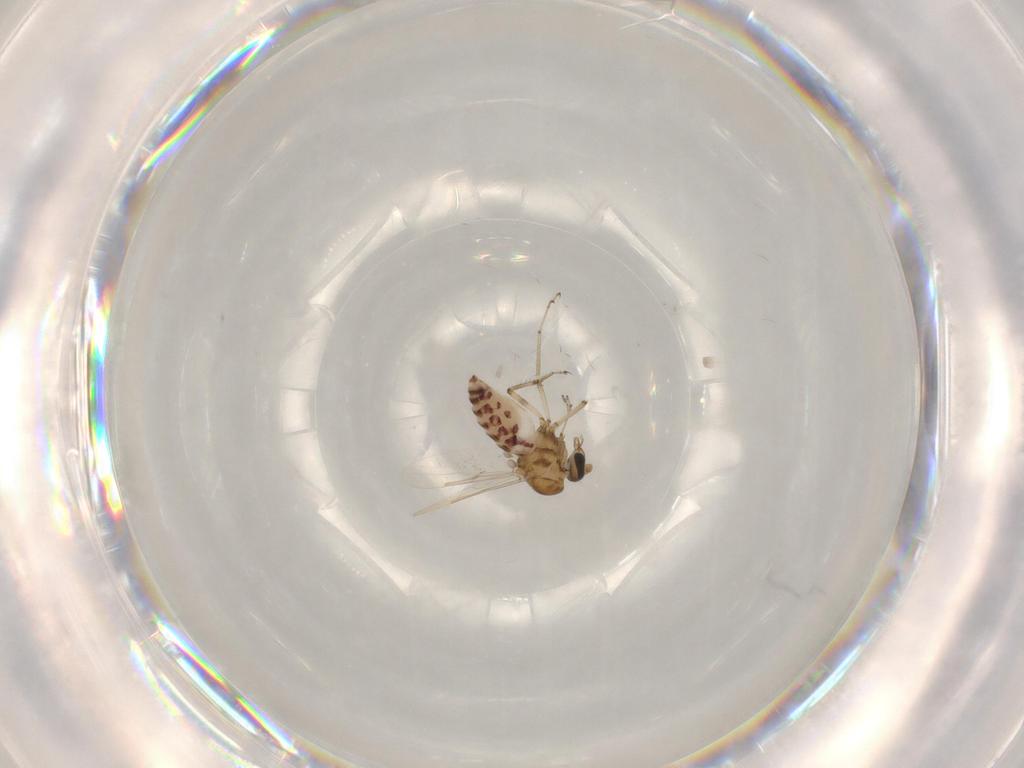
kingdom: Animalia
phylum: Arthropoda
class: Insecta
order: Diptera
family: Ceratopogonidae
